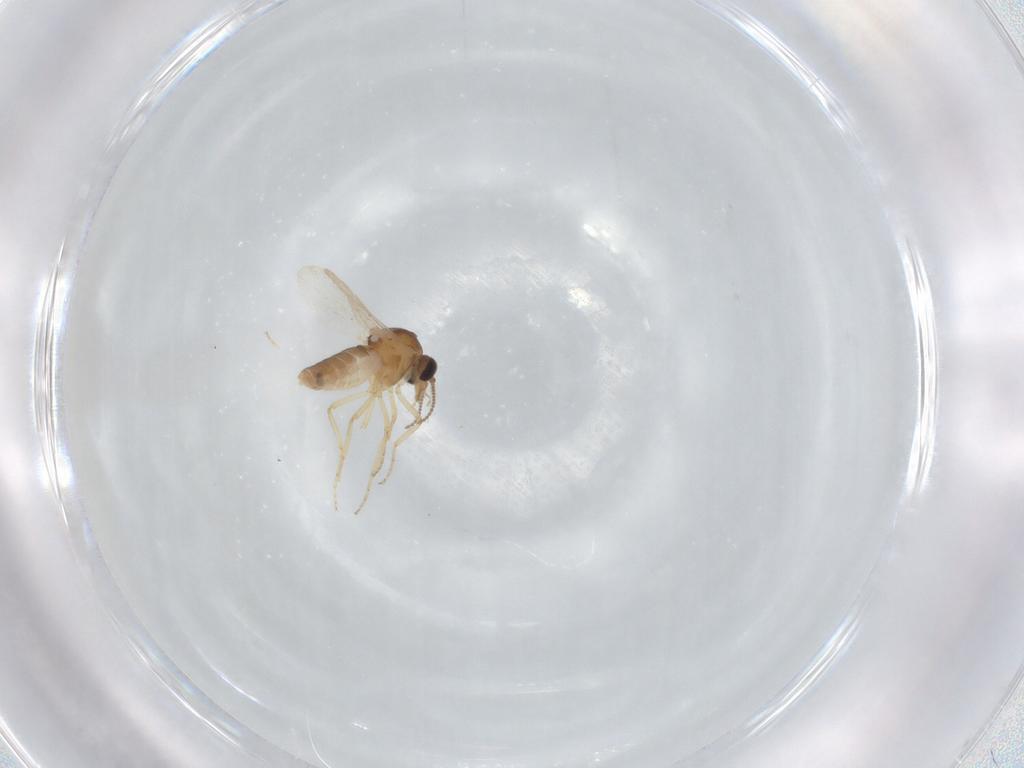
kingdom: Animalia
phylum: Arthropoda
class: Insecta
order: Diptera
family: Ceratopogonidae
